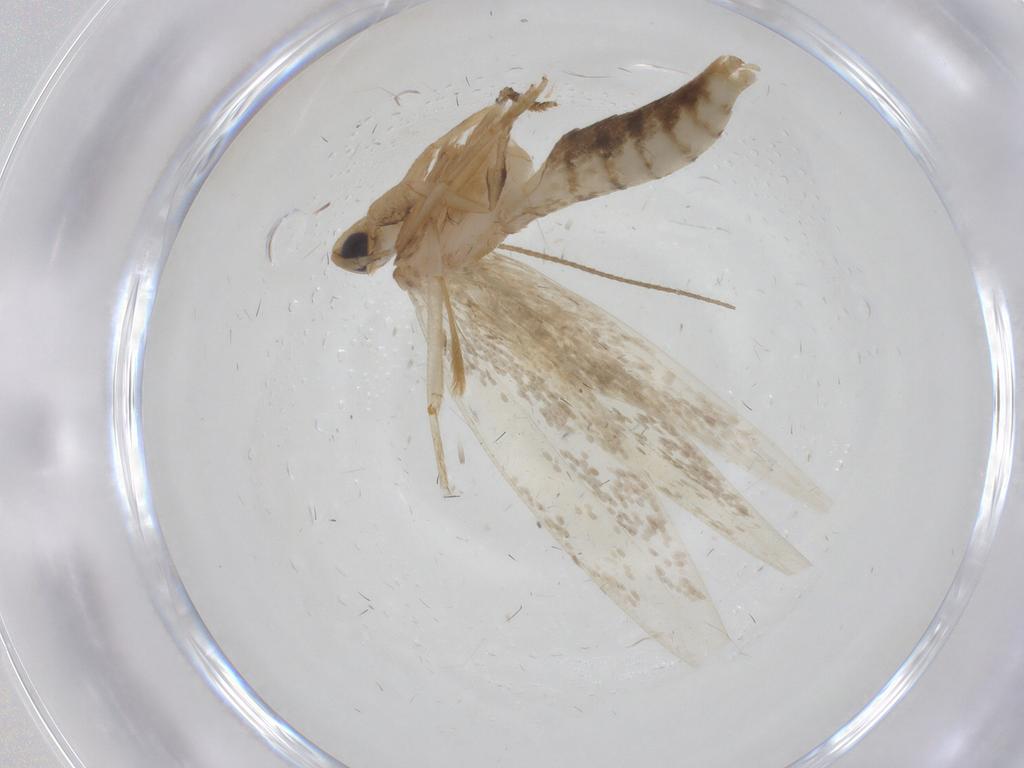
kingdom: Animalia
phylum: Arthropoda
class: Insecta
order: Lepidoptera
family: Tineidae
